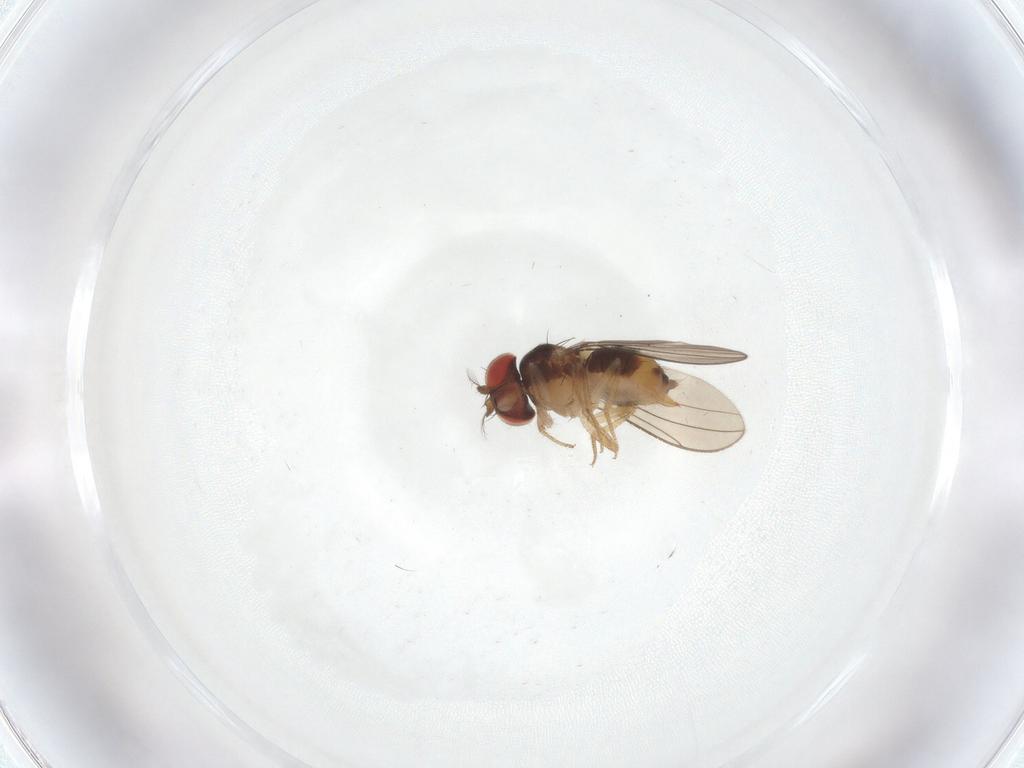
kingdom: Animalia
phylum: Arthropoda
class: Insecta
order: Diptera
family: Drosophilidae
